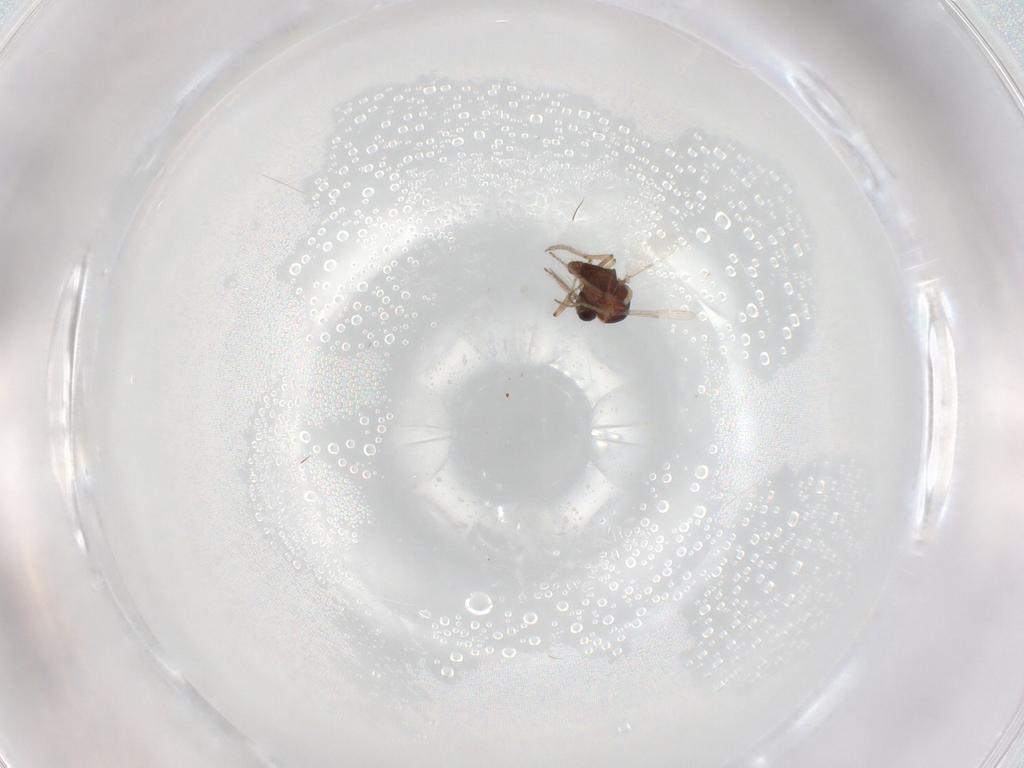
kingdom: Animalia
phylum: Arthropoda
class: Insecta
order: Diptera
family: Ceratopogonidae
